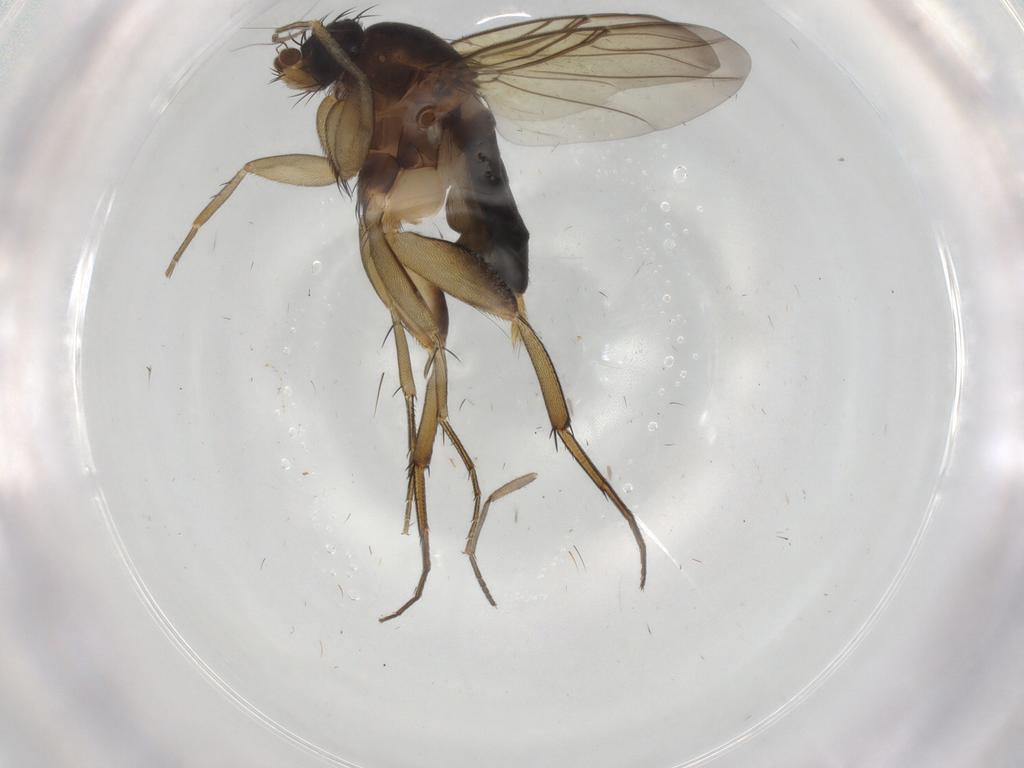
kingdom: Animalia
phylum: Arthropoda
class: Insecta
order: Diptera
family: Phoridae
